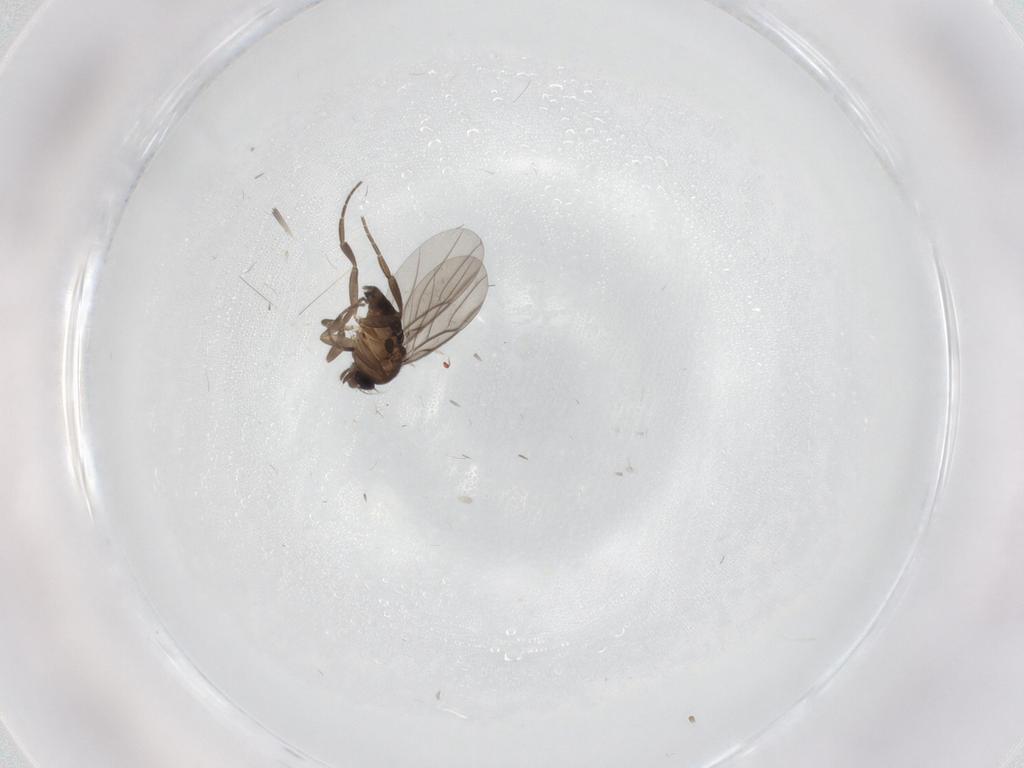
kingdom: Animalia
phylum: Arthropoda
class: Insecta
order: Diptera
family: Phoridae
